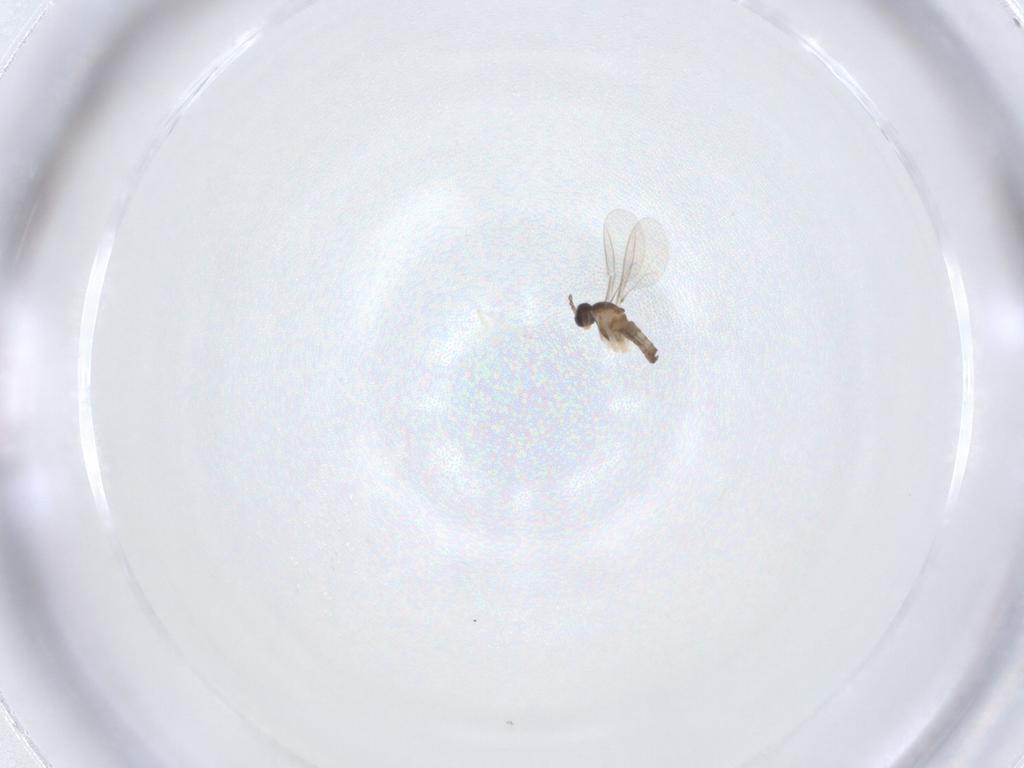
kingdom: Animalia
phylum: Arthropoda
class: Insecta
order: Diptera
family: Cecidomyiidae
